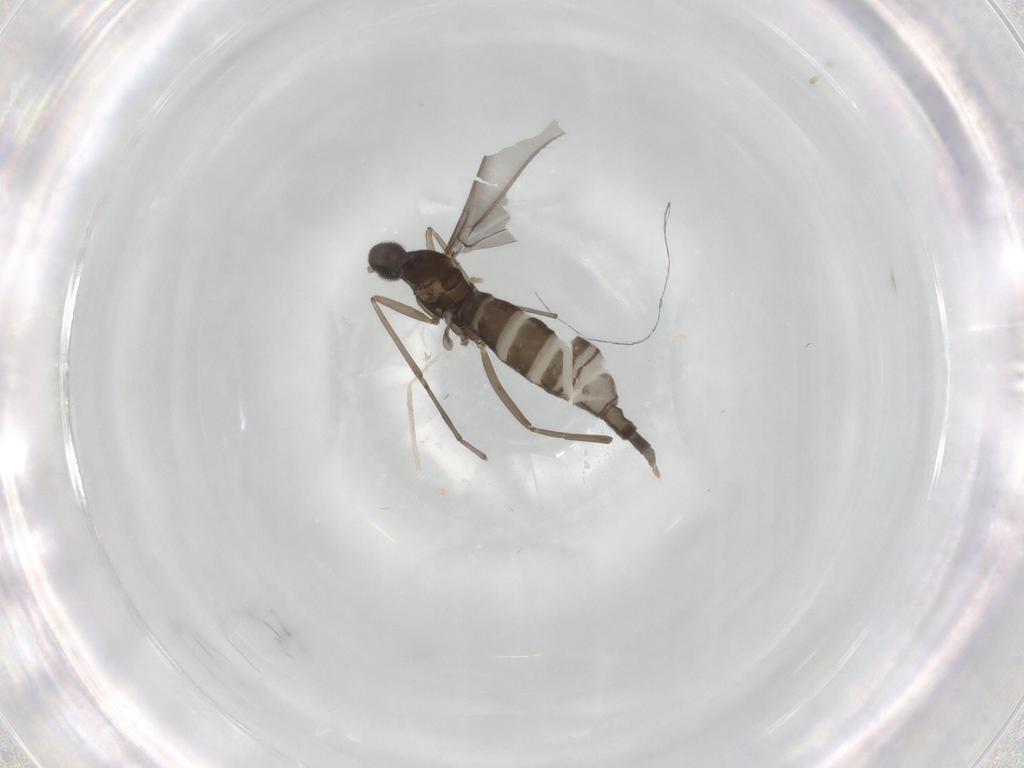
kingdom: Animalia
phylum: Arthropoda
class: Insecta
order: Diptera
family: Cecidomyiidae
